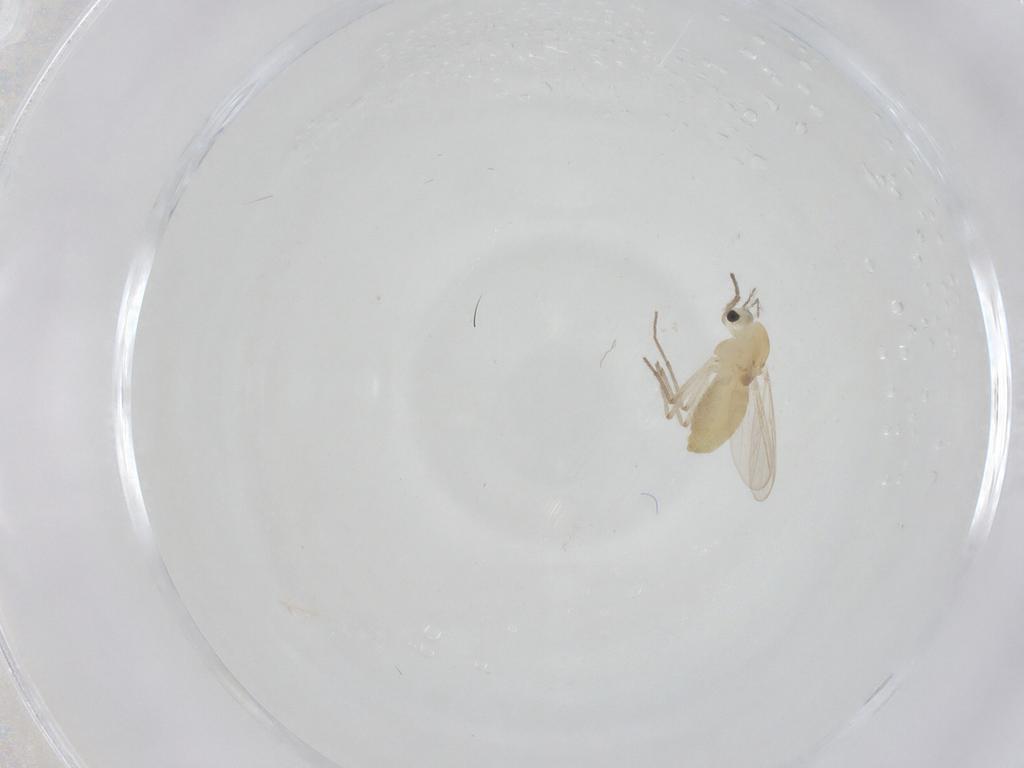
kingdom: Animalia
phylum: Arthropoda
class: Insecta
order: Diptera
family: Chironomidae
